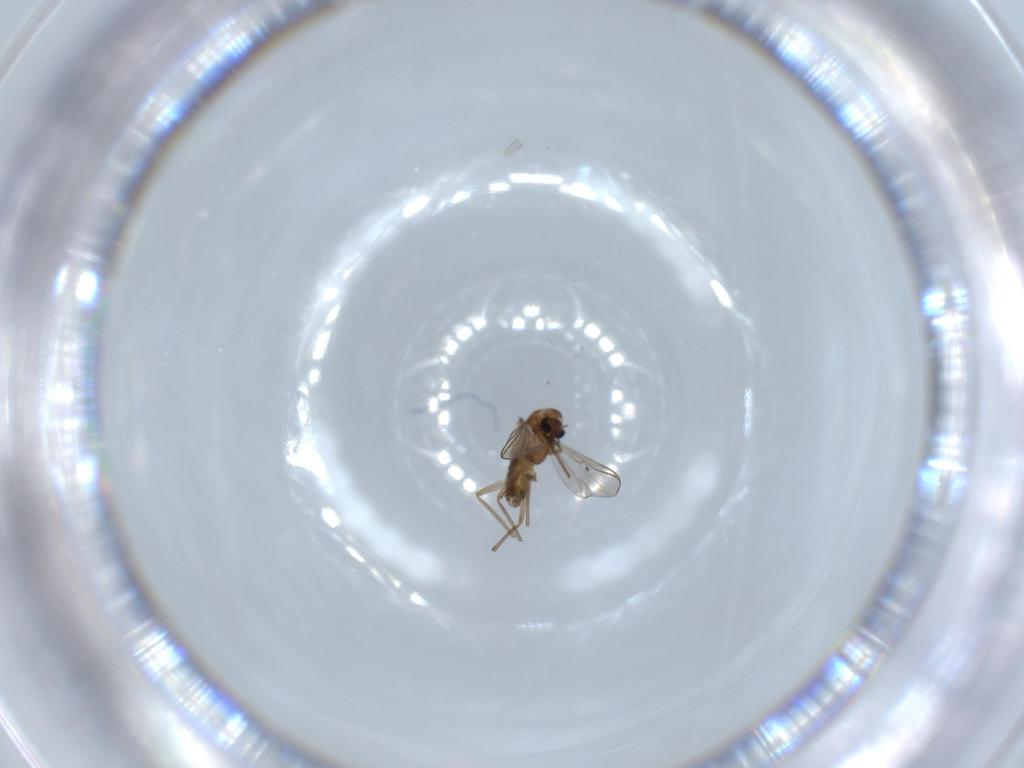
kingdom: Animalia
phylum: Arthropoda
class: Insecta
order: Diptera
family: Chironomidae
